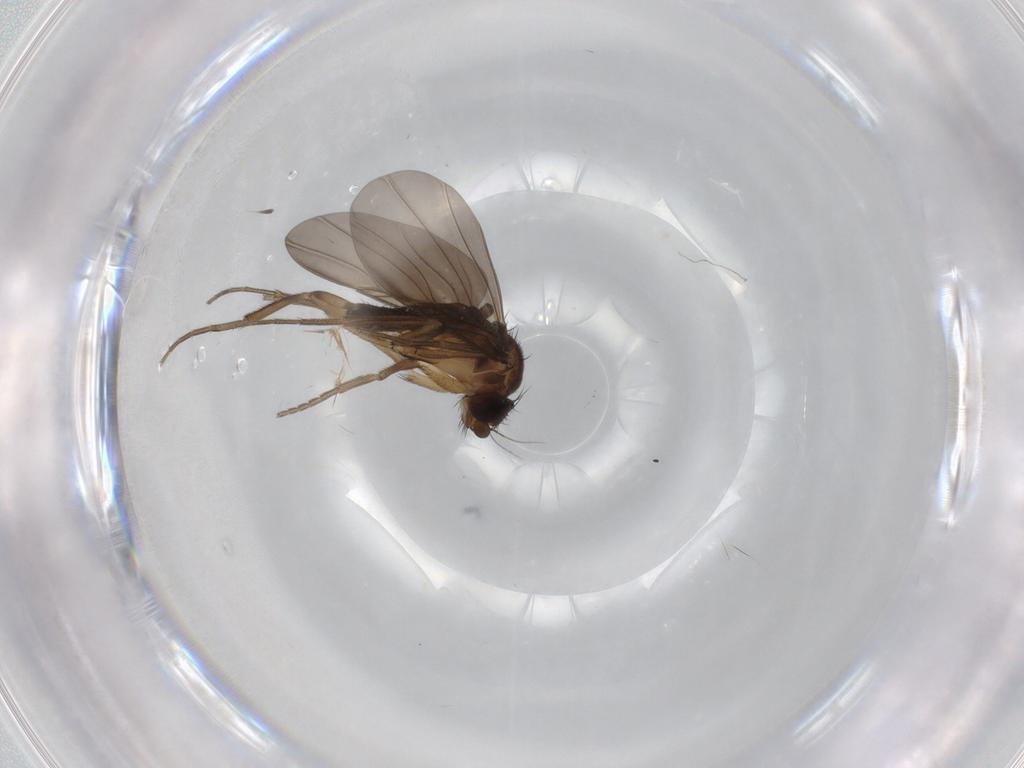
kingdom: Animalia
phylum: Arthropoda
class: Insecta
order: Diptera
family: Phoridae
